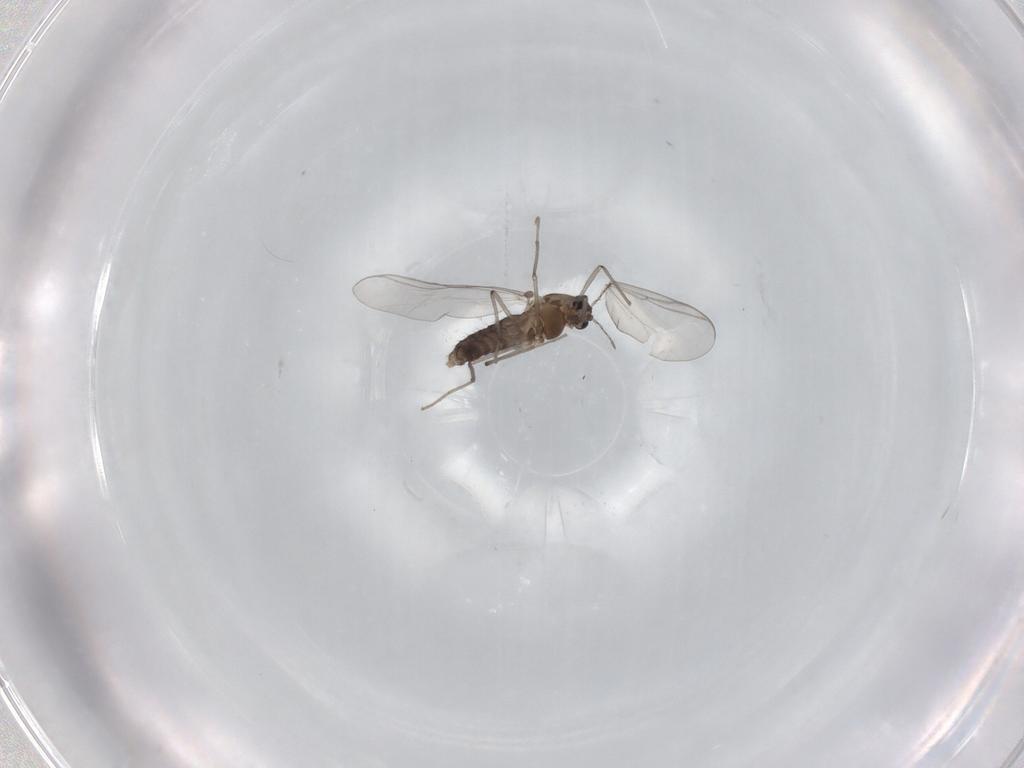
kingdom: Animalia
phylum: Arthropoda
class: Insecta
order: Diptera
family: Chironomidae
